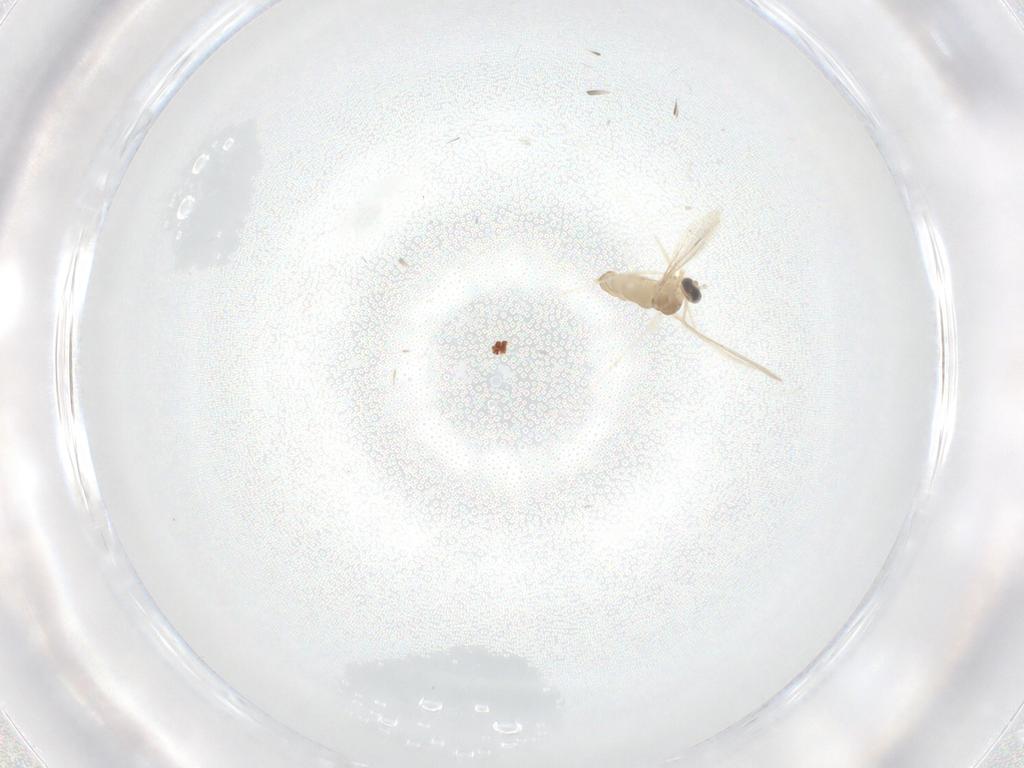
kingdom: Animalia
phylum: Arthropoda
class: Insecta
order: Diptera
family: Cecidomyiidae
